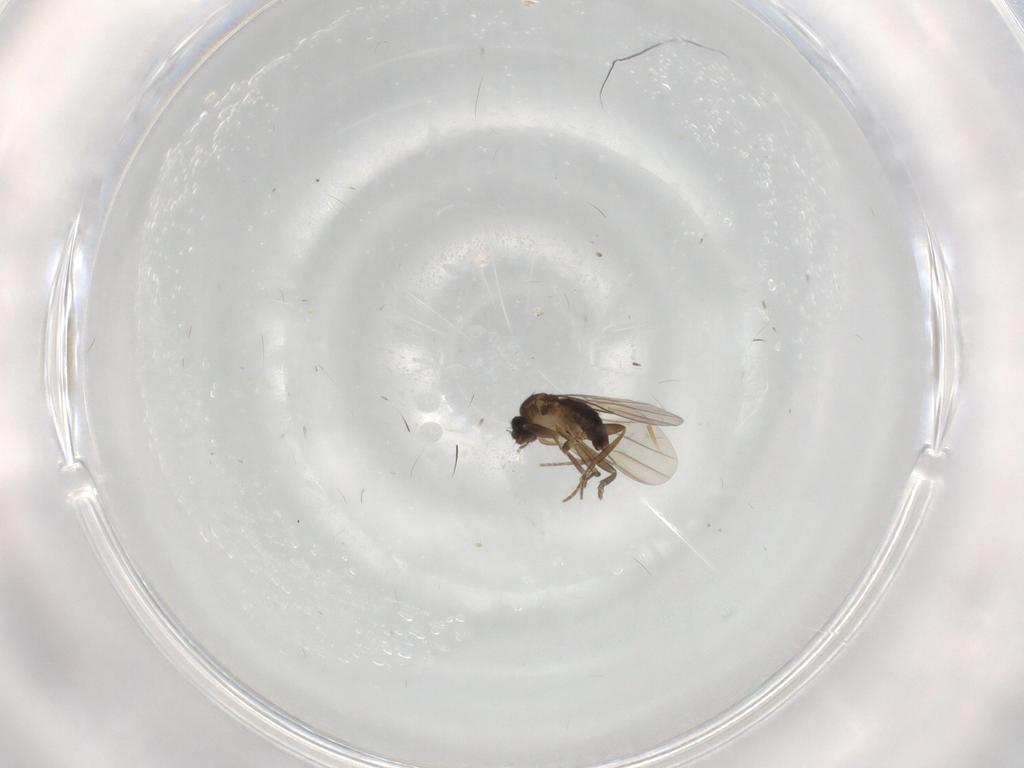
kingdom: Animalia
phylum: Arthropoda
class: Insecta
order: Diptera
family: Phoridae
